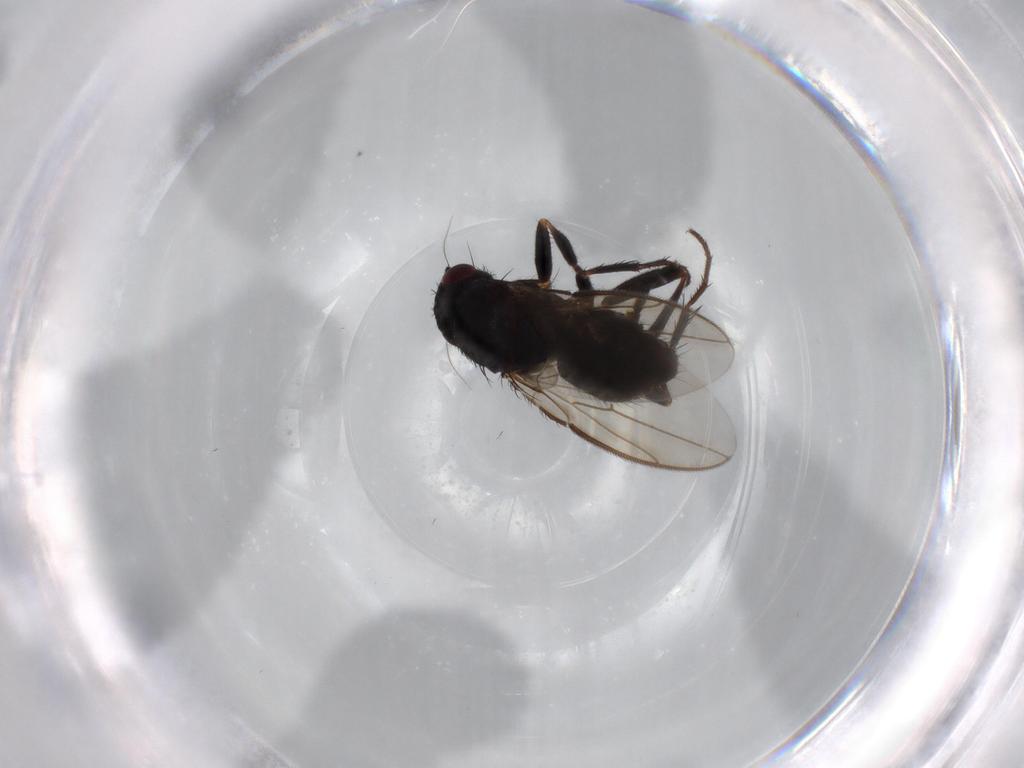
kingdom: Animalia
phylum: Arthropoda
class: Insecta
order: Diptera
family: Sphaeroceridae
